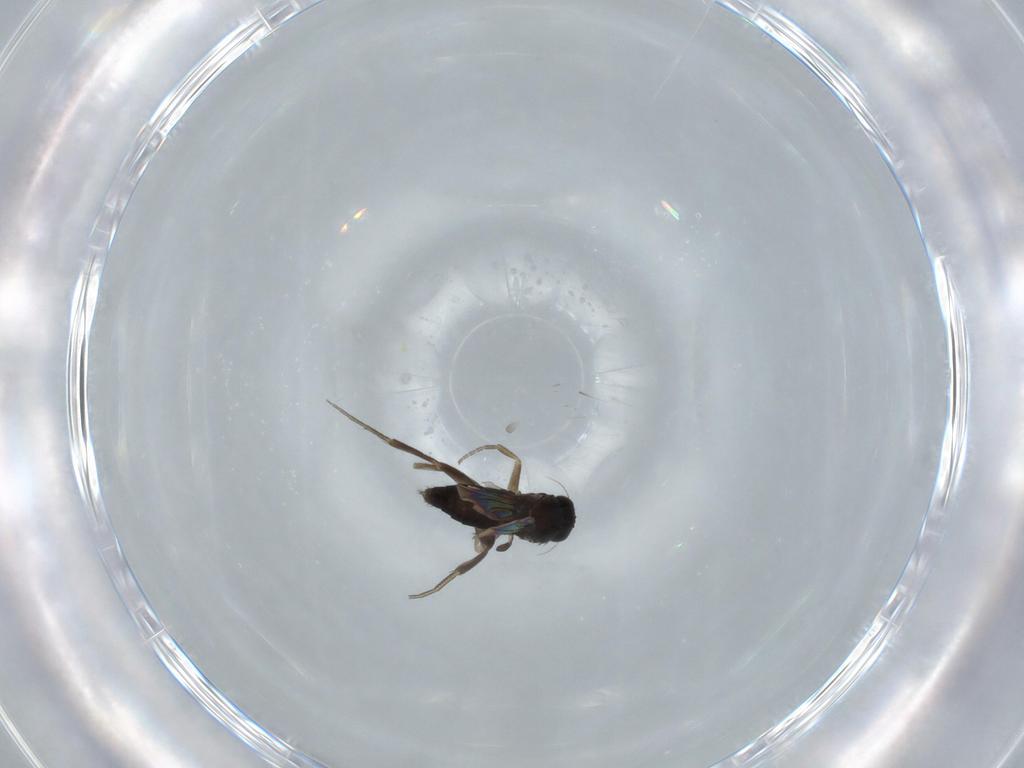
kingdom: Animalia
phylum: Arthropoda
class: Insecta
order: Diptera
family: Phoridae
